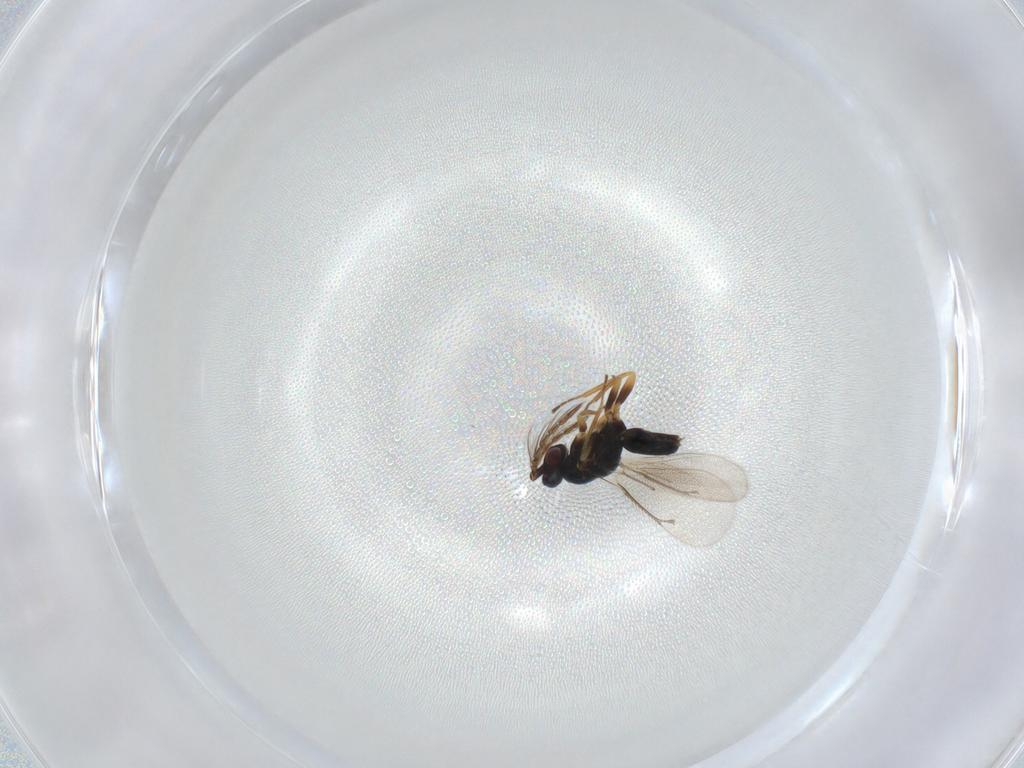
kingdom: Animalia
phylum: Arthropoda
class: Insecta
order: Hymenoptera
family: Eulophidae
